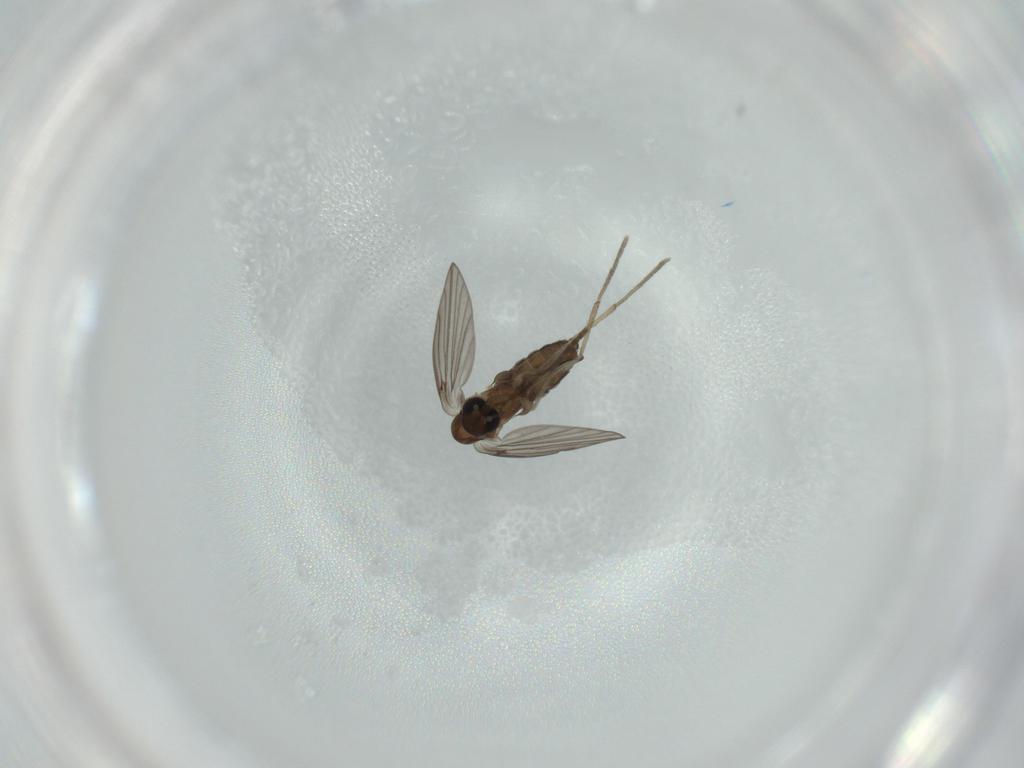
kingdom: Animalia
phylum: Arthropoda
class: Insecta
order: Diptera
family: Psychodidae
